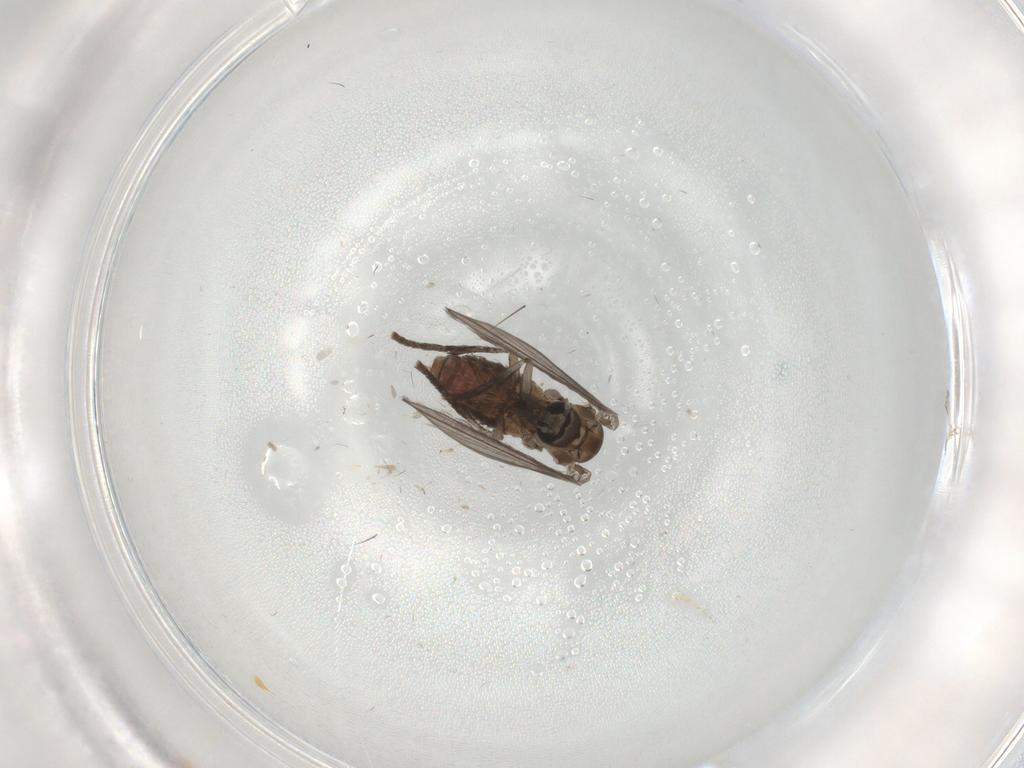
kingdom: Animalia
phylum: Arthropoda
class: Insecta
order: Diptera
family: Psychodidae
